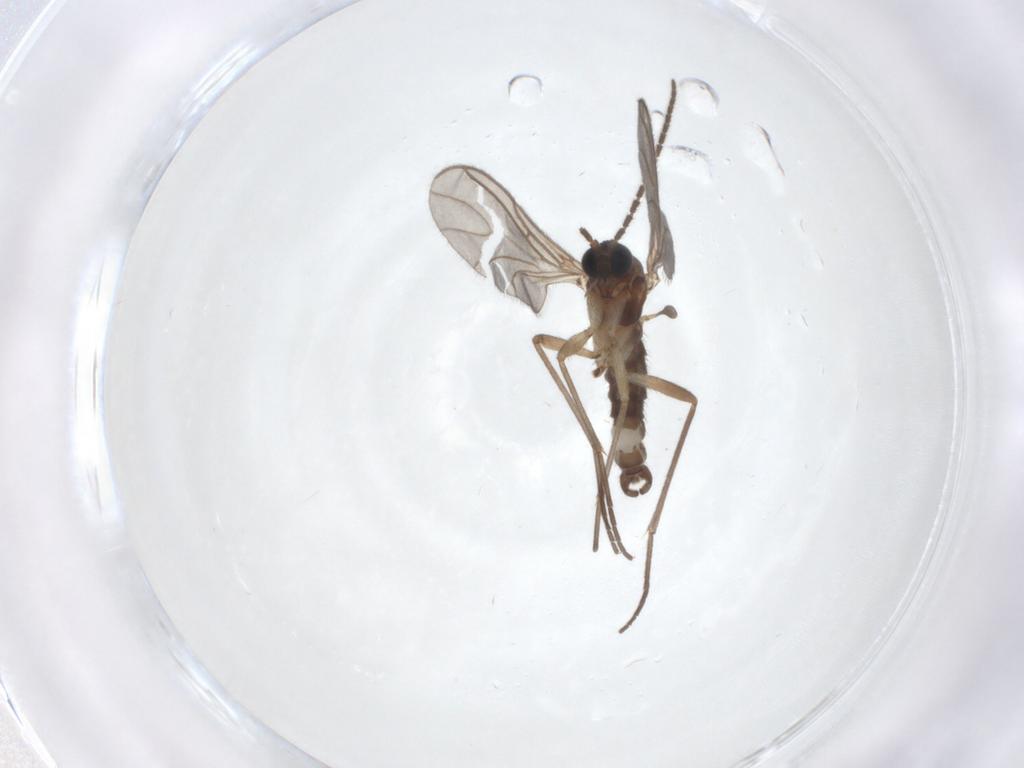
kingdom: Animalia
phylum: Arthropoda
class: Insecta
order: Diptera
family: Sciaridae
